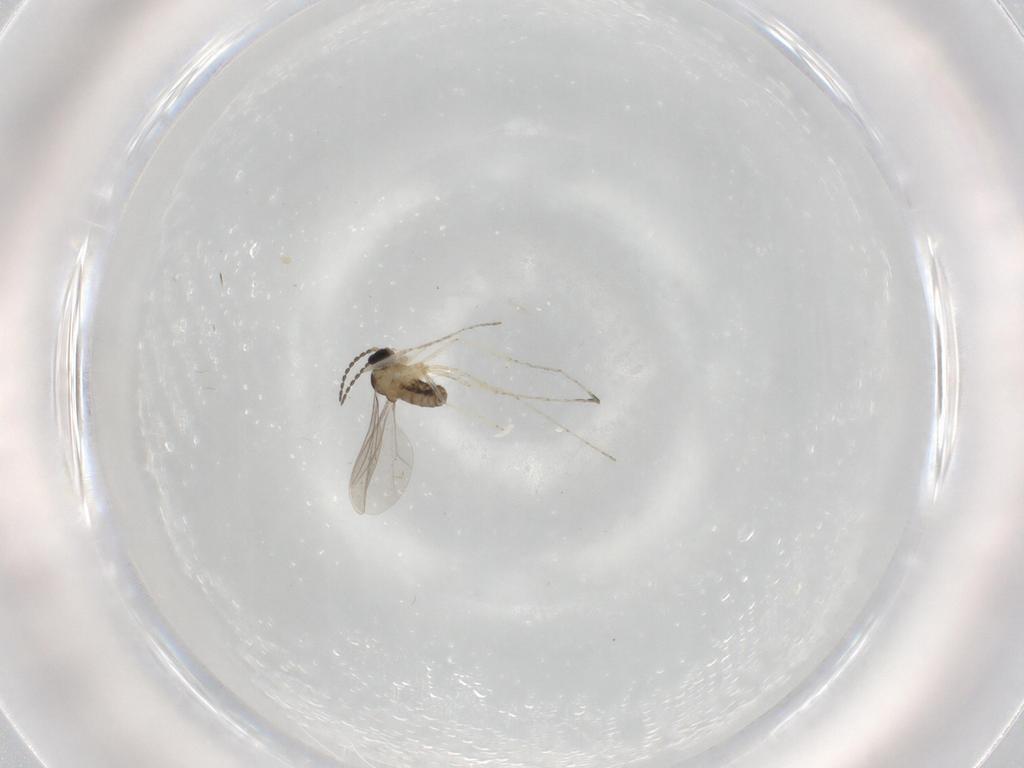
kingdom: Animalia
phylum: Arthropoda
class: Insecta
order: Diptera
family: Cecidomyiidae
